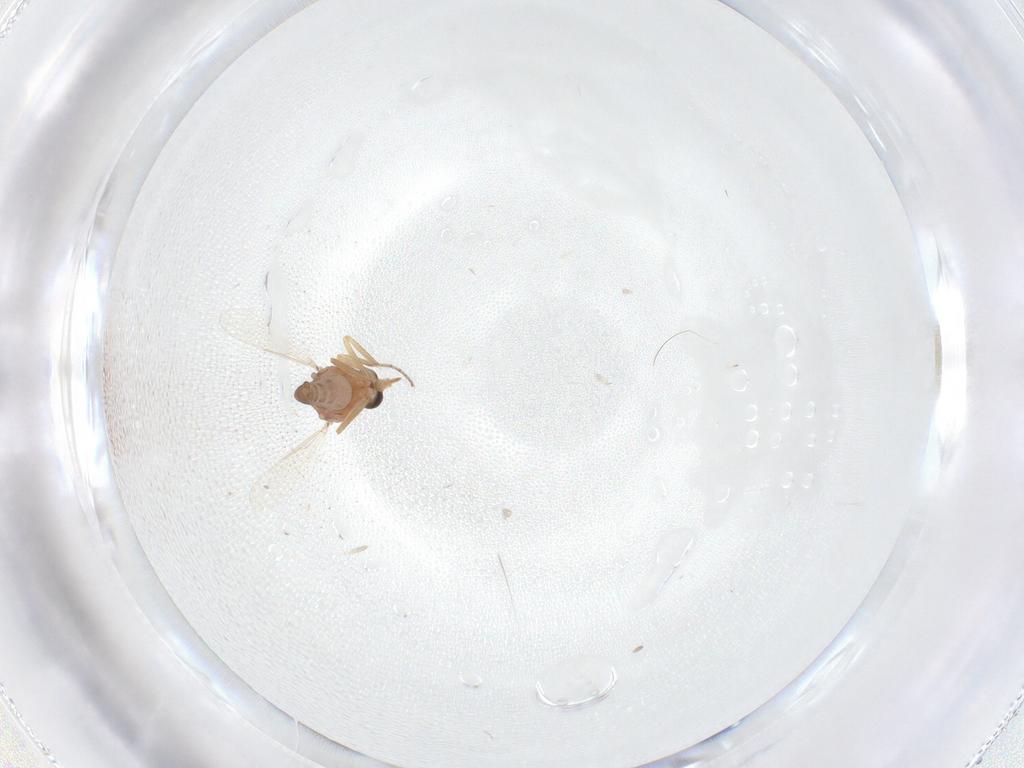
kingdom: Animalia
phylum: Arthropoda
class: Insecta
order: Diptera
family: Ceratopogonidae
